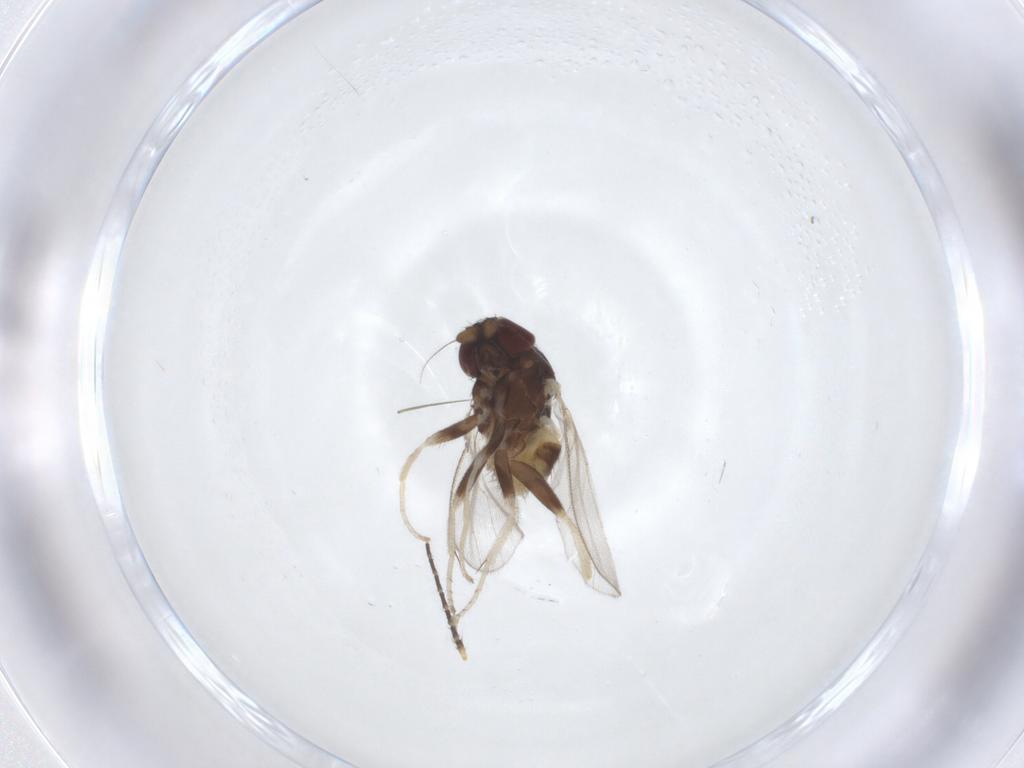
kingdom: Animalia
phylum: Arthropoda
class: Insecta
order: Diptera
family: Milichiidae
